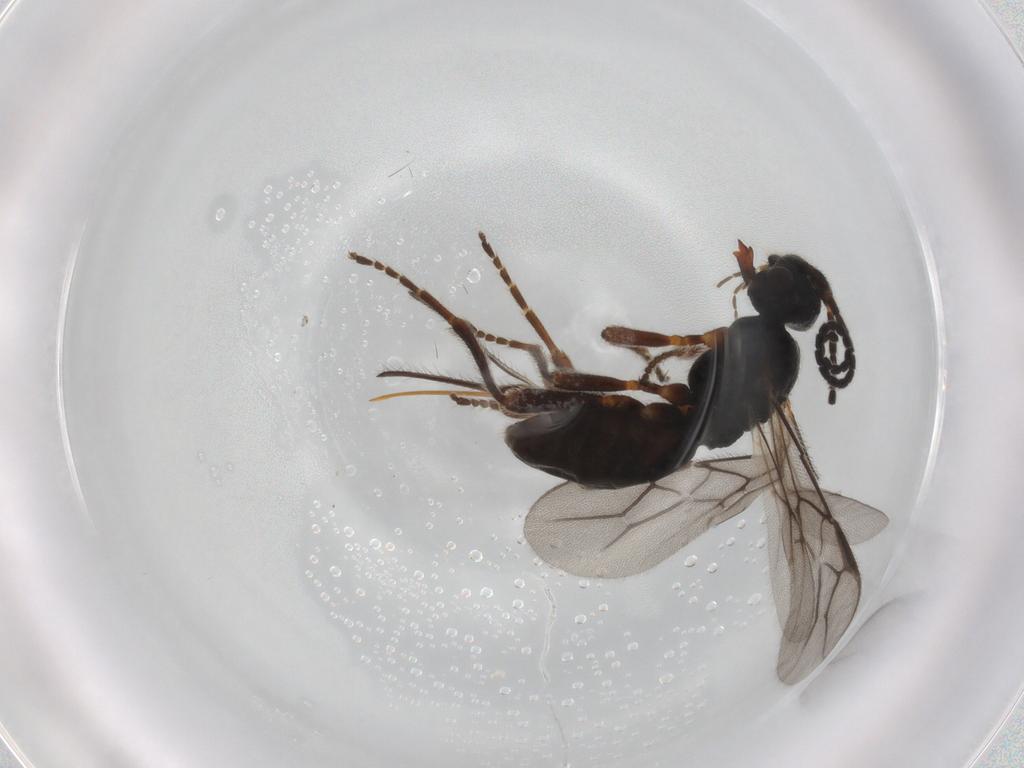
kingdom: Animalia
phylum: Arthropoda
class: Insecta
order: Hymenoptera
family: Braconidae
